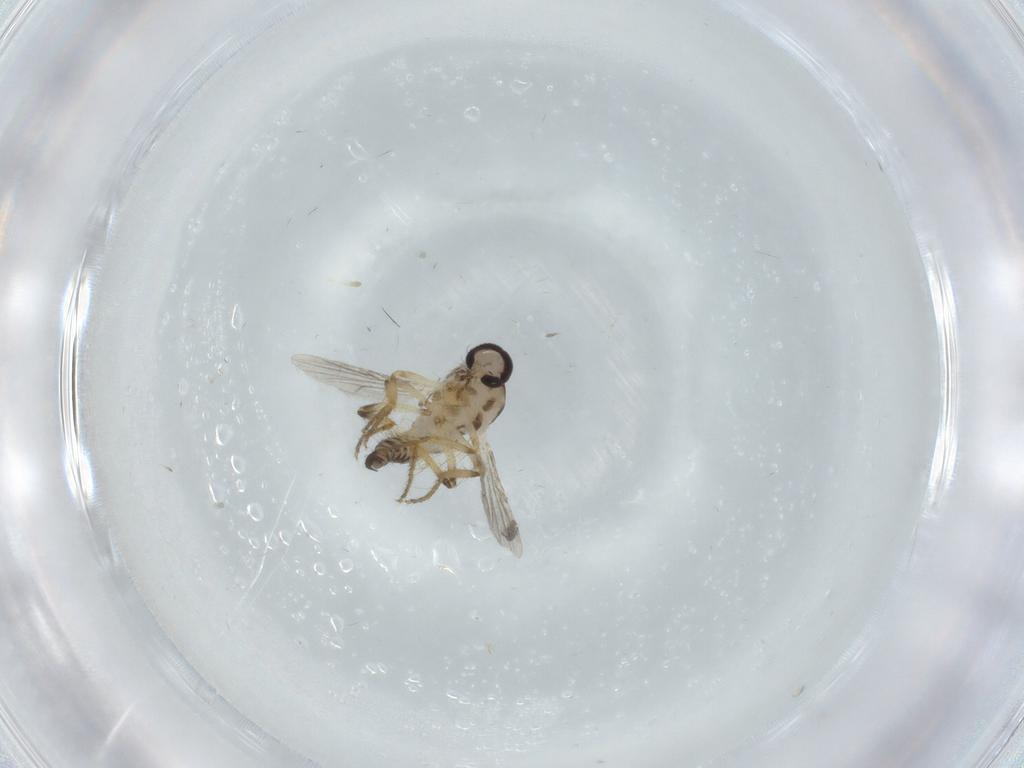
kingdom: Animalia
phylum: Arthropoda
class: Insecta
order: Diptera
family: Ceratopogonidae
